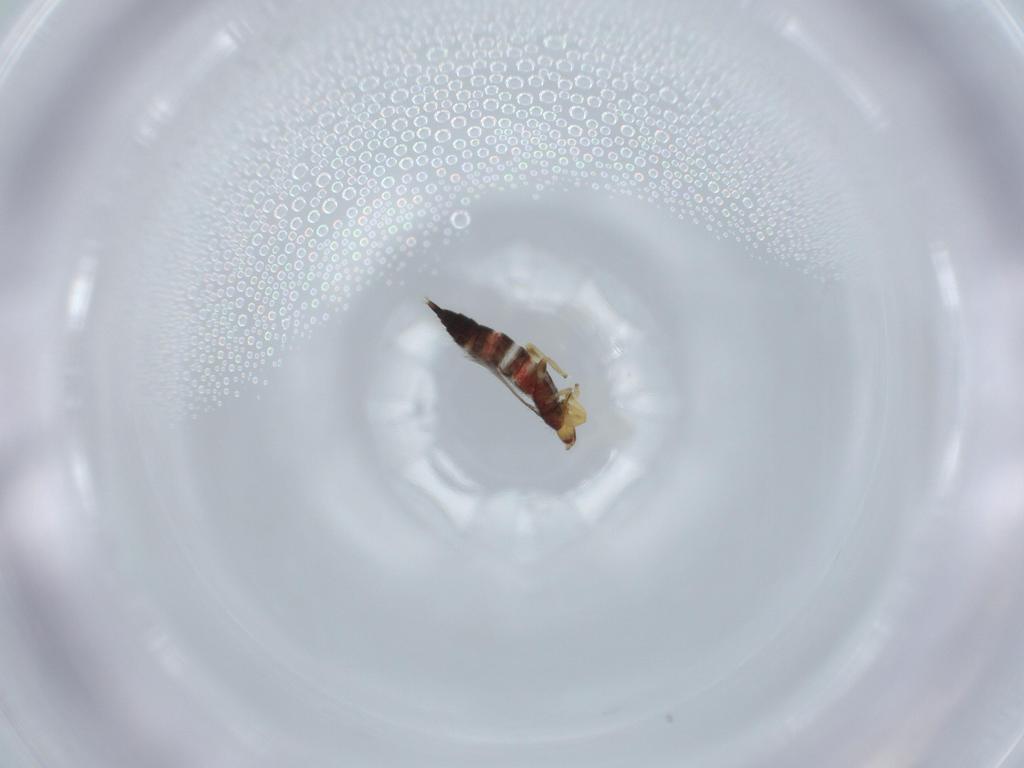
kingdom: Animalia
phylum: Arthropoda
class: Insecta
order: Thysanoptera
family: Phlaeothripidae
